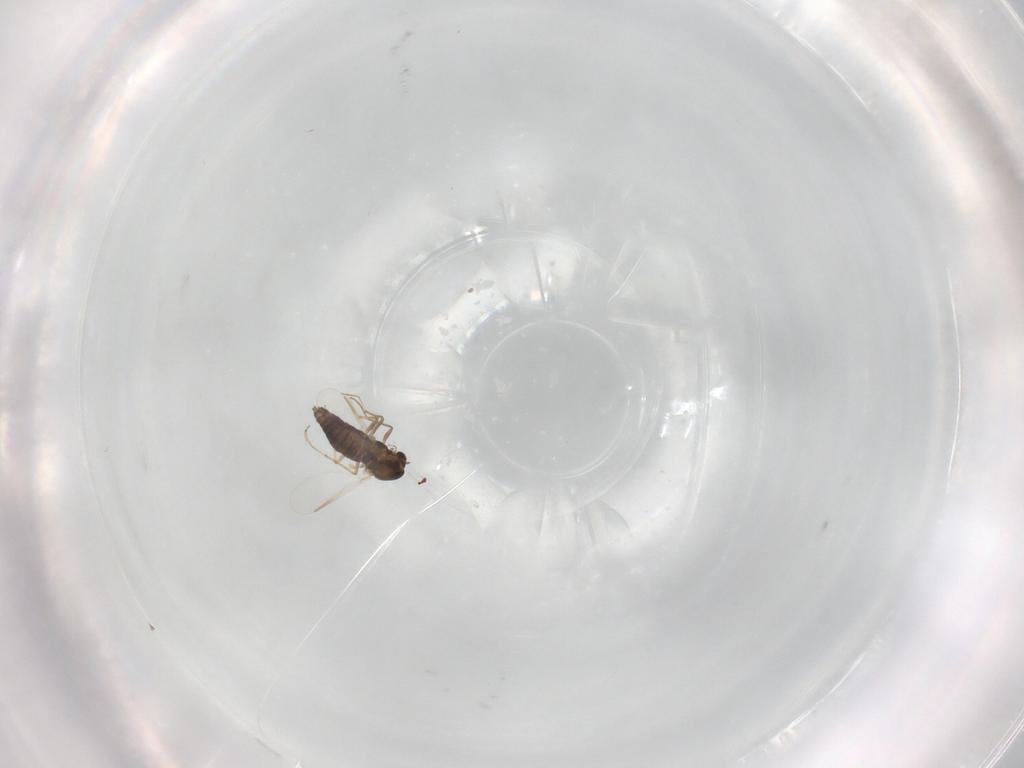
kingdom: Animalia
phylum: Arthropoda
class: Insecta
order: Diptera
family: Chironomidae
